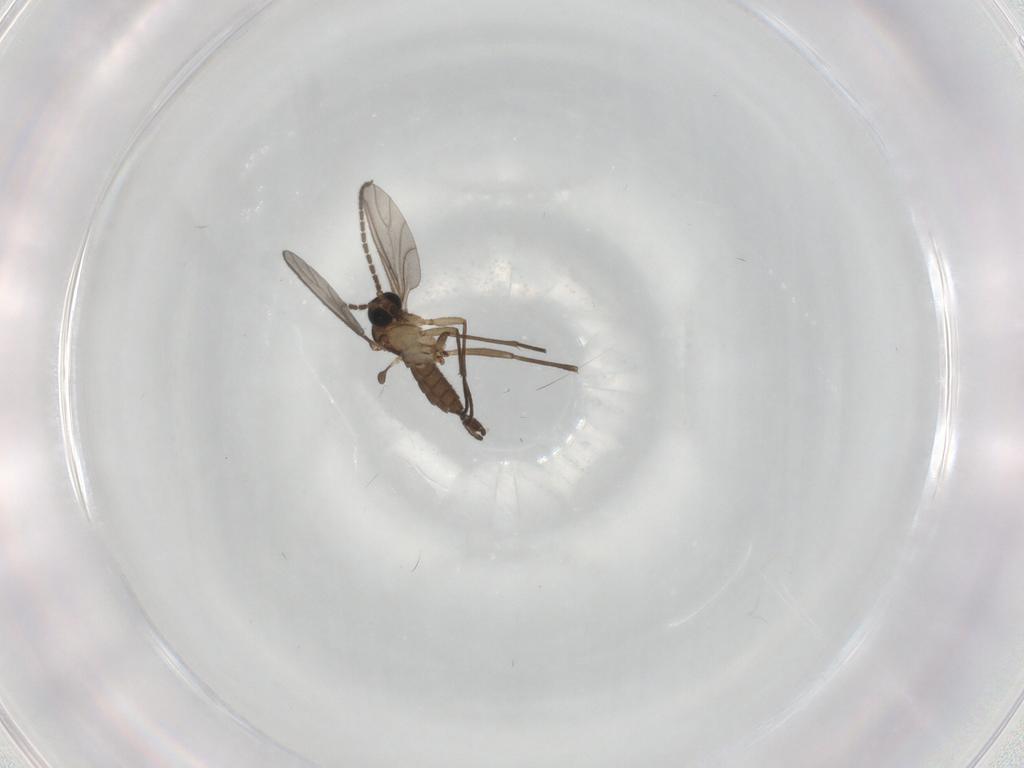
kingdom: Animalia
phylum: Arthropoda
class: Insecta
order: Diptera
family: Sciaridae
